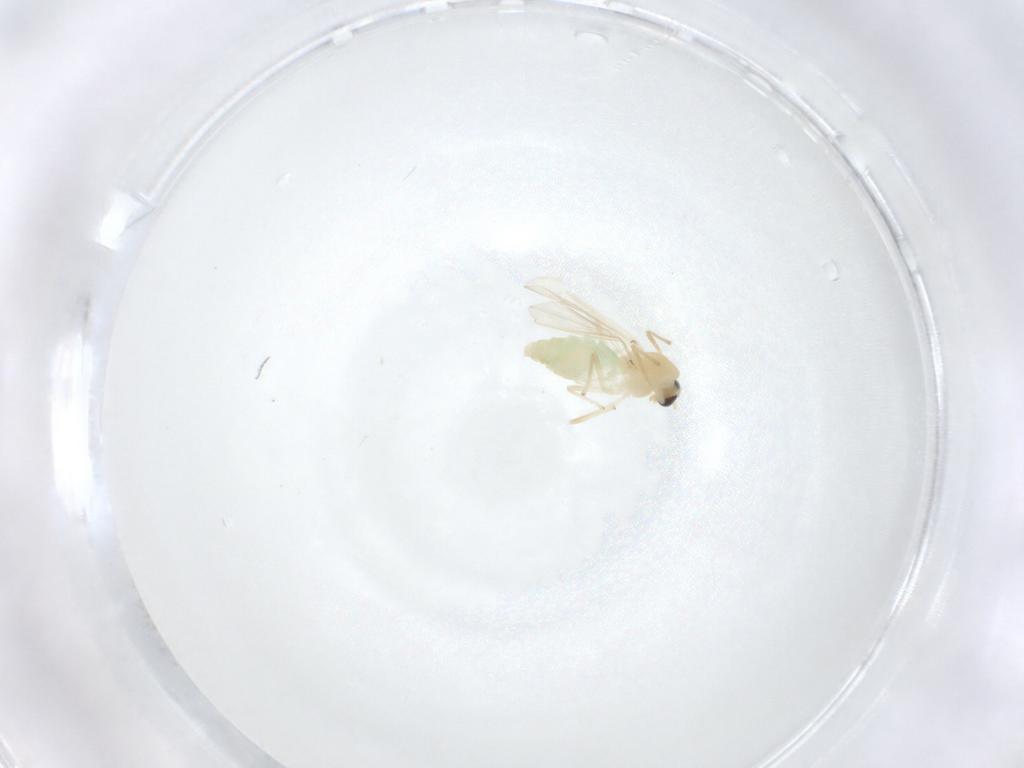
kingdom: Animalia
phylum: Arthropoda
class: Insecta
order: Diptera
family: Chironomidae
